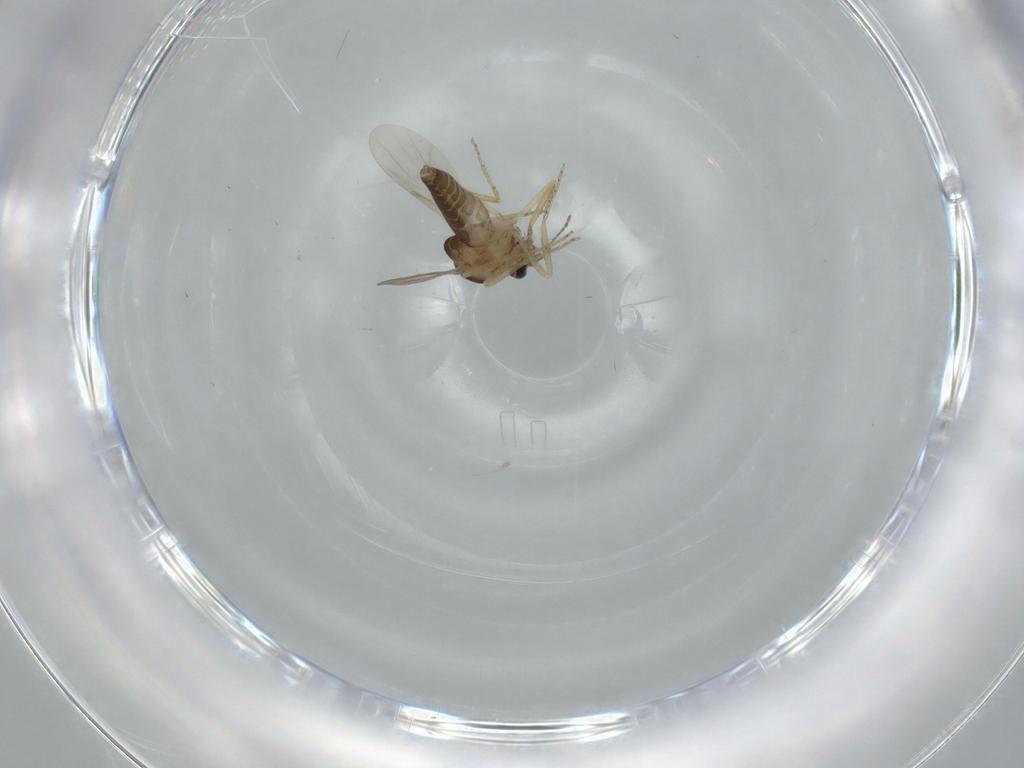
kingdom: Animalia
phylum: Arthropoda
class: Insecta
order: Diptera
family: Ceratopogonidae
